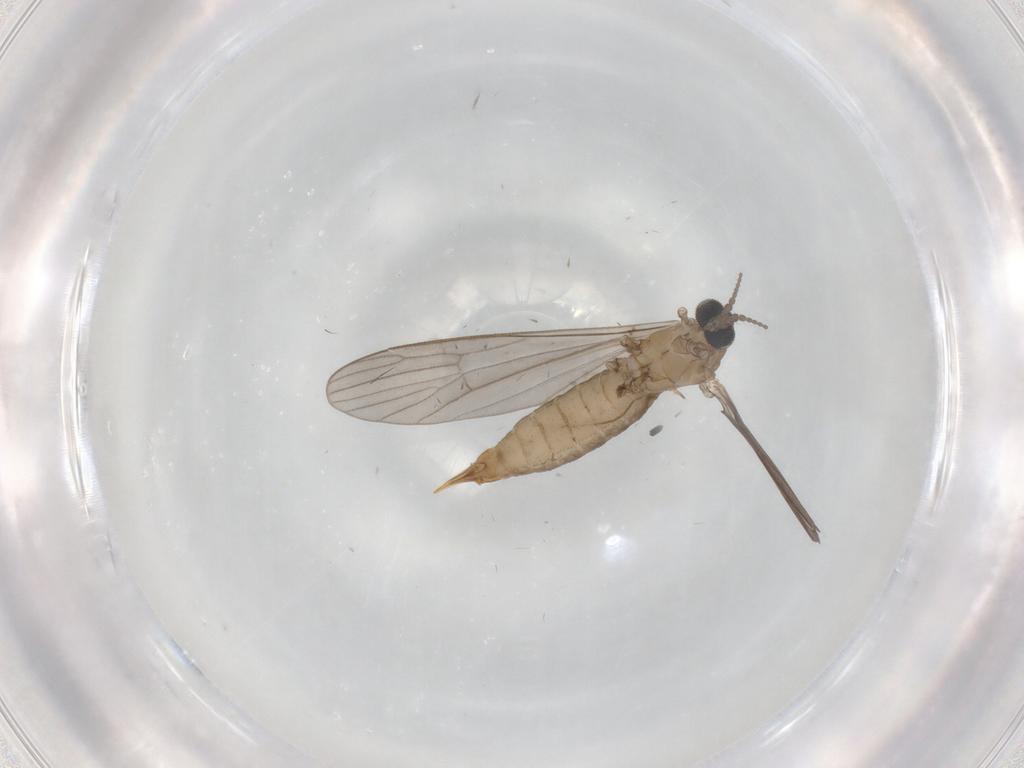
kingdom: Animalia
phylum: Arthropoda
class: Insecta
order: Diptera
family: Limoniidae
